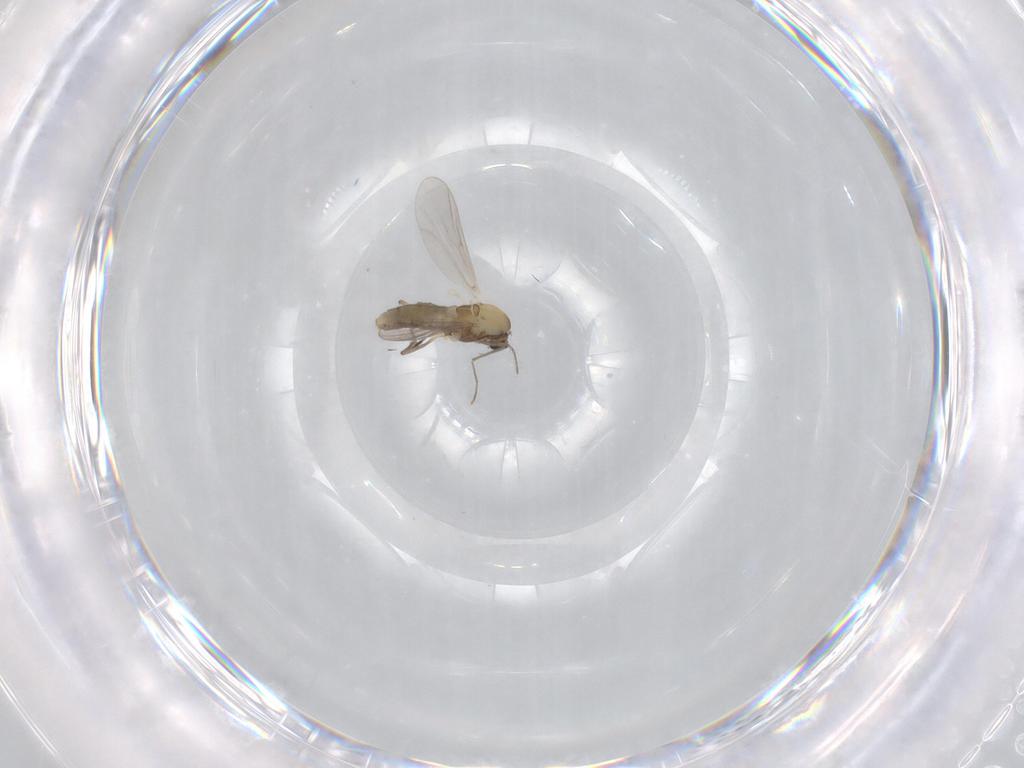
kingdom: Animalia
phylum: Arthropoda
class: Insecta
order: Diptera
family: Chironomidae
